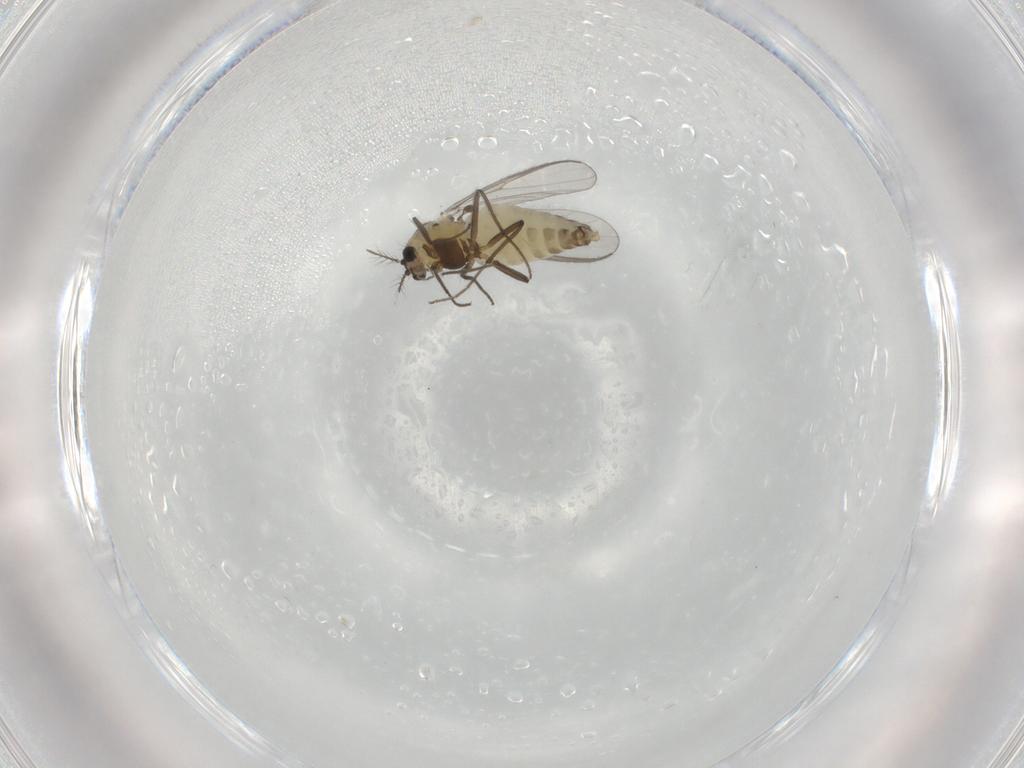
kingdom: Animalia
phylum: Arthropoda
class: Insecta
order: Diptera
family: Chironomidae
